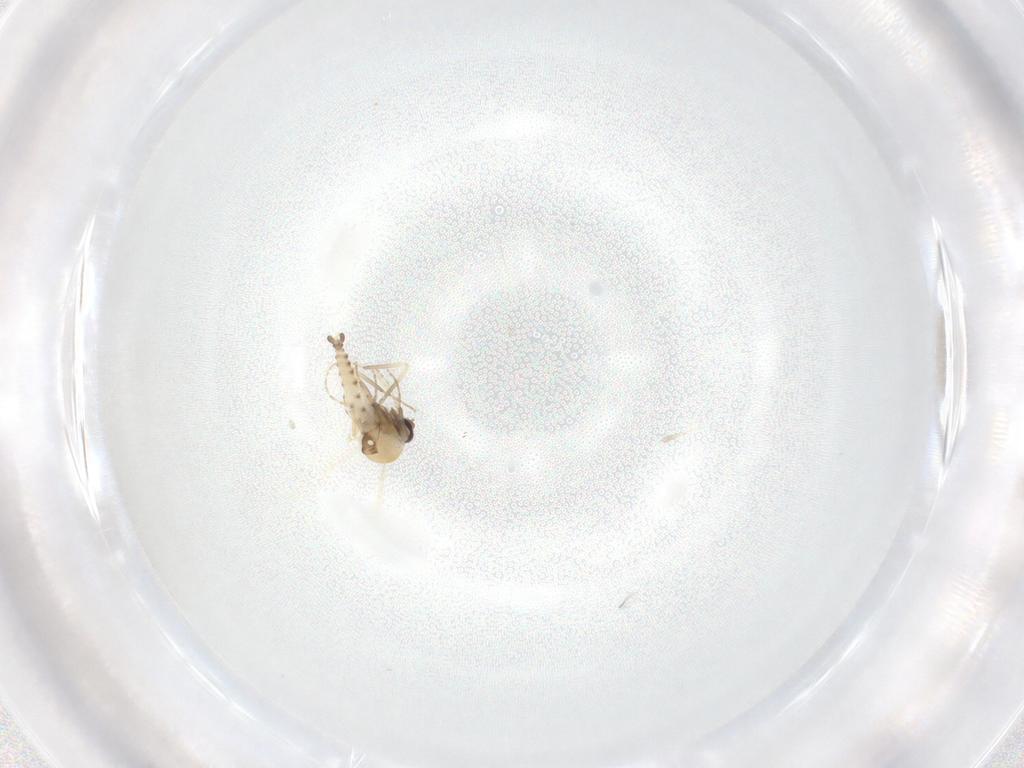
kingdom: Animalia
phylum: Arthropoda
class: Insecta
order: Diptera
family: Ceratopogonidae
